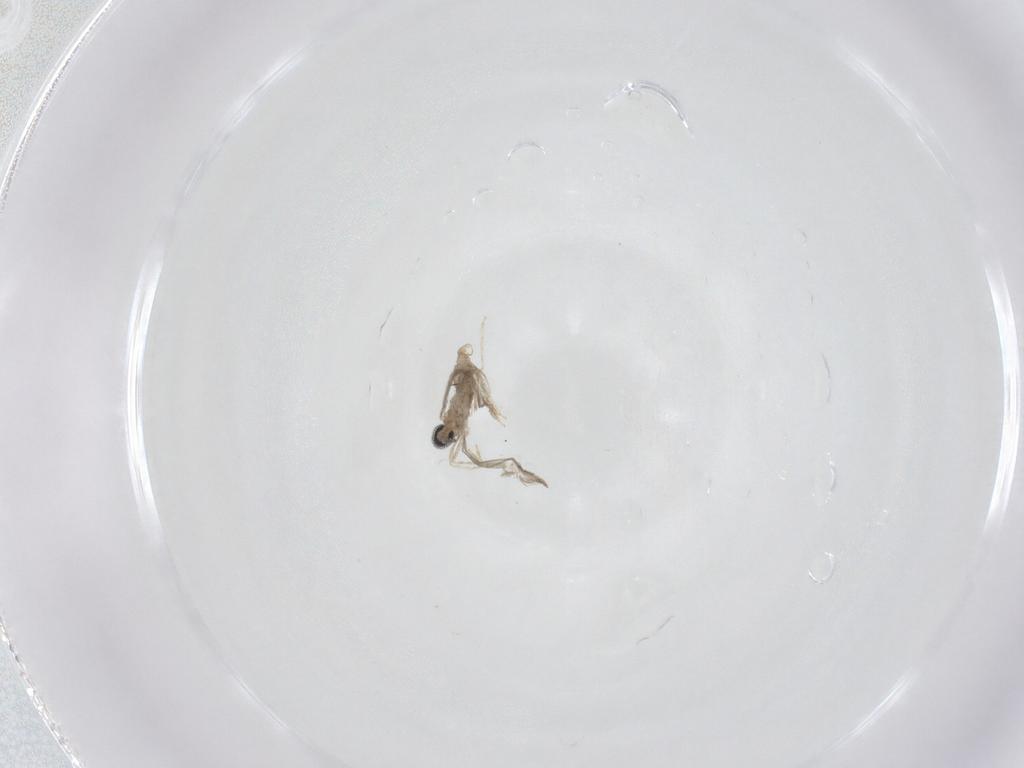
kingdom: Animalia
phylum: Arthropoda
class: Insecta
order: Diptera
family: Cecidomyiidae
